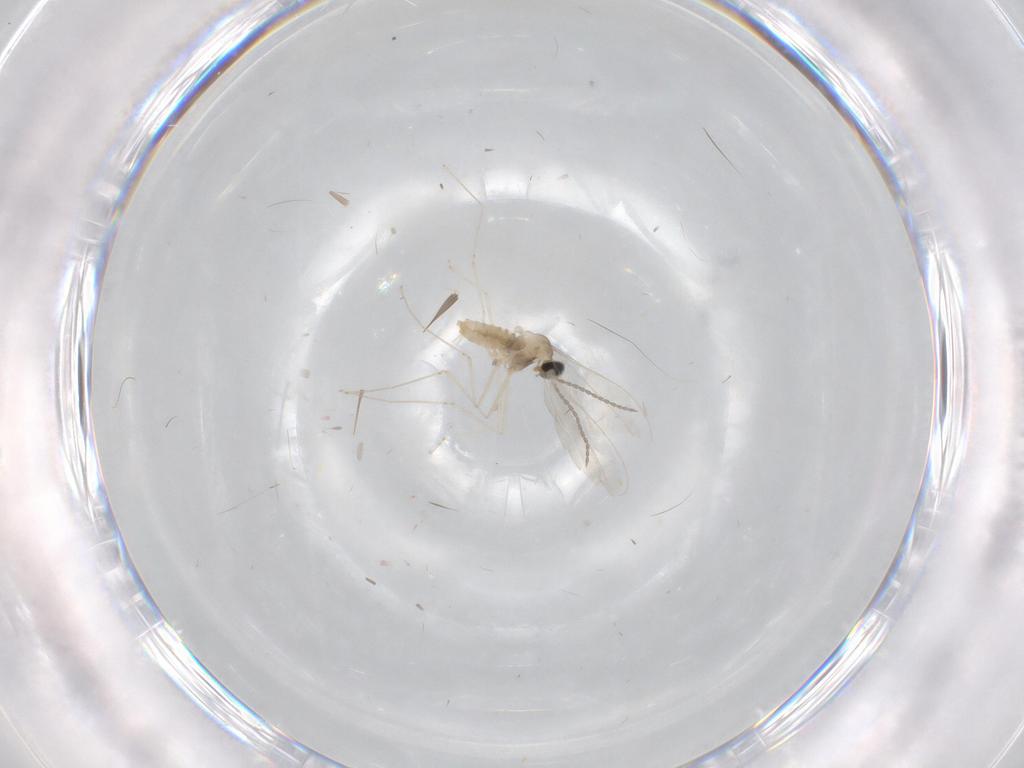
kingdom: Animalia
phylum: Arthropoda
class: Insecta
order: Diptera
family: Cecidomyiidae
